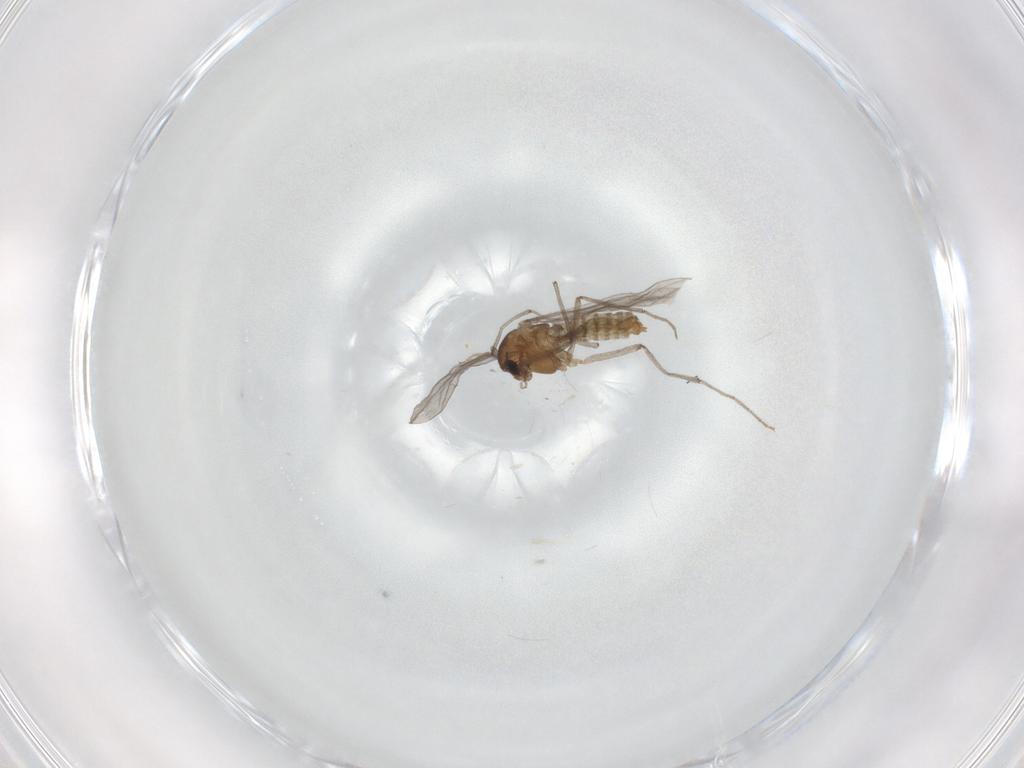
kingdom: Animalia
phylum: Arthropoda
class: Insecta
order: Diptera
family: Chironomidae
